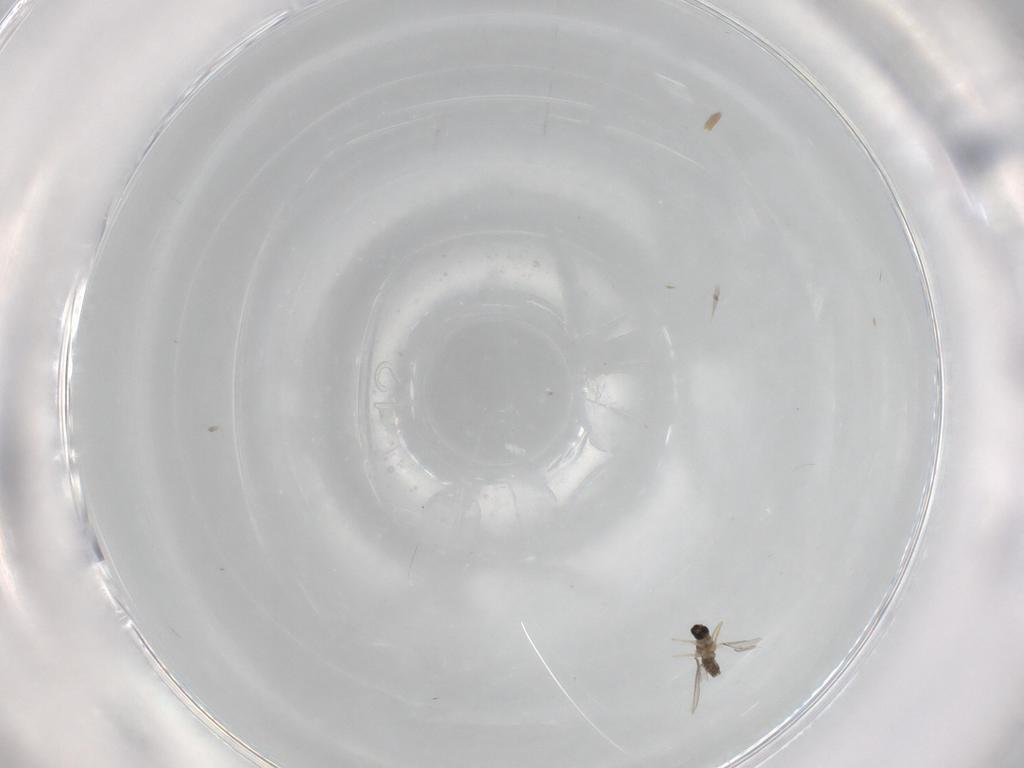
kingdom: Animalia
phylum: Arthropoda
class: Insecta
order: Diptera
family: Cecidomyiidae
